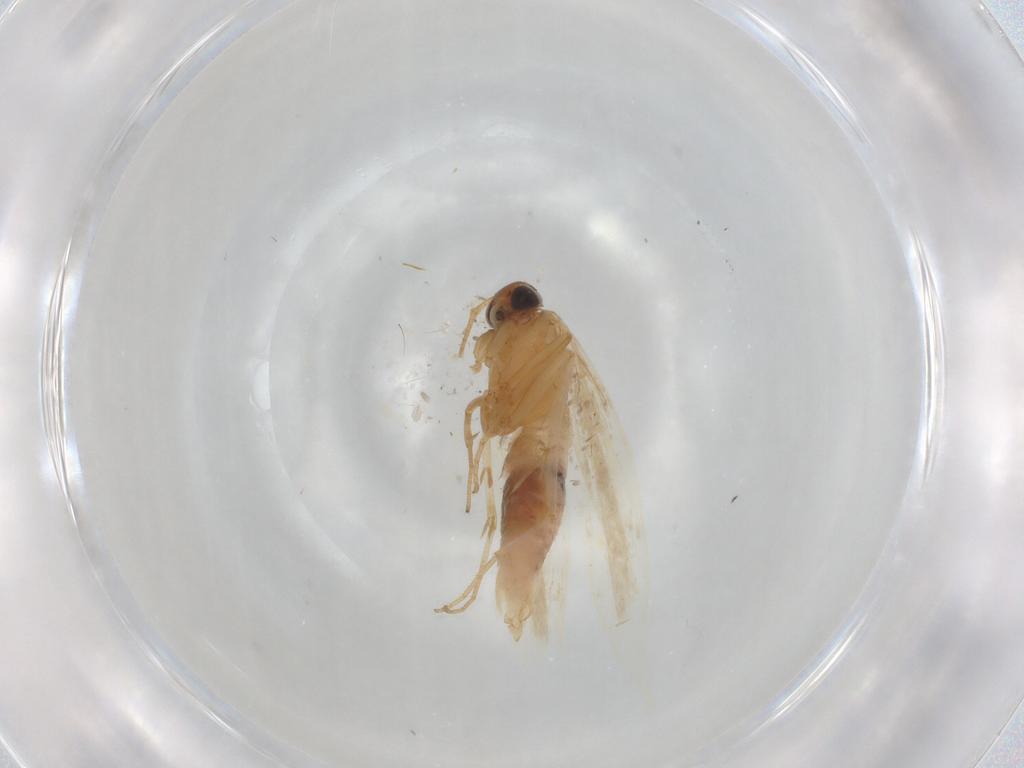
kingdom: Animalia
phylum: Arthropoda
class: Insecta
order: Lepidoptera
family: Gelechiidae
